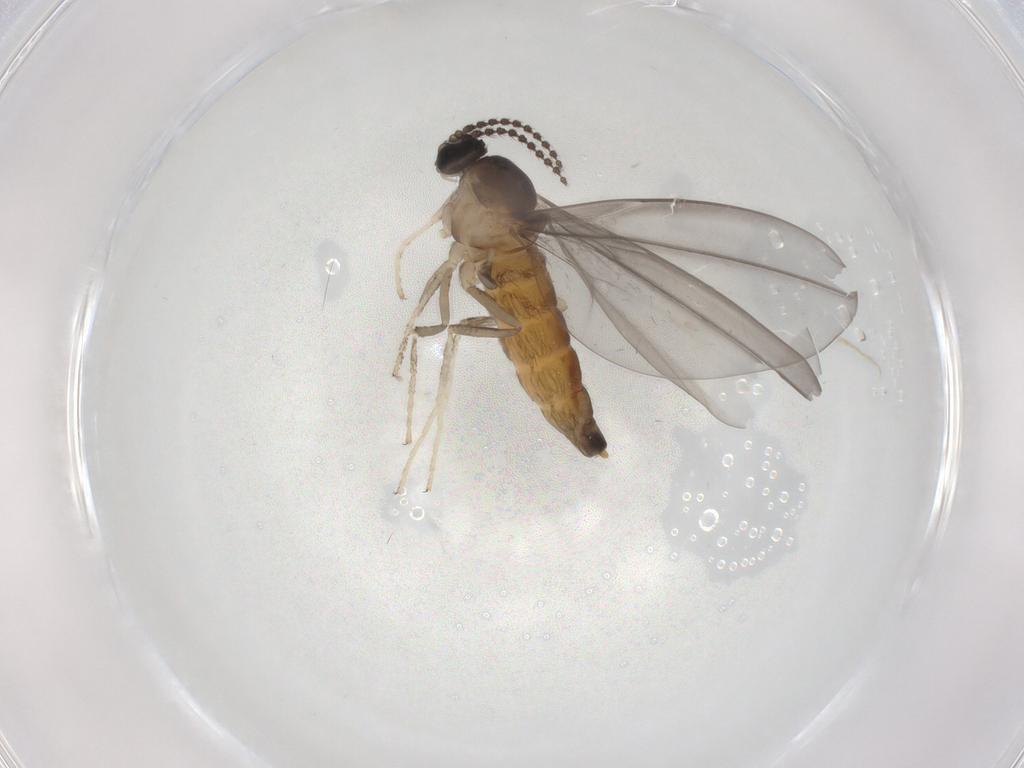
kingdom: Animalia
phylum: Arthropoda
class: Insecta
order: Diptera
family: Cecidomyiidae
